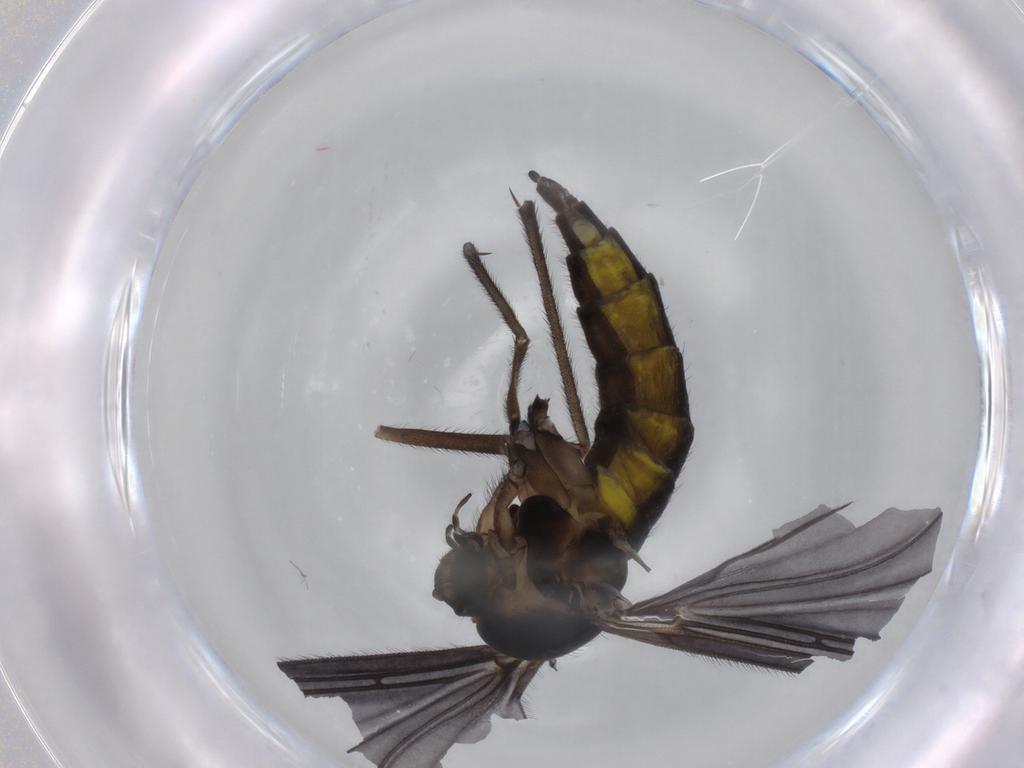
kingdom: Animalia
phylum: Arthropoda
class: Insecta
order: Diptera
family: Sciaridae
